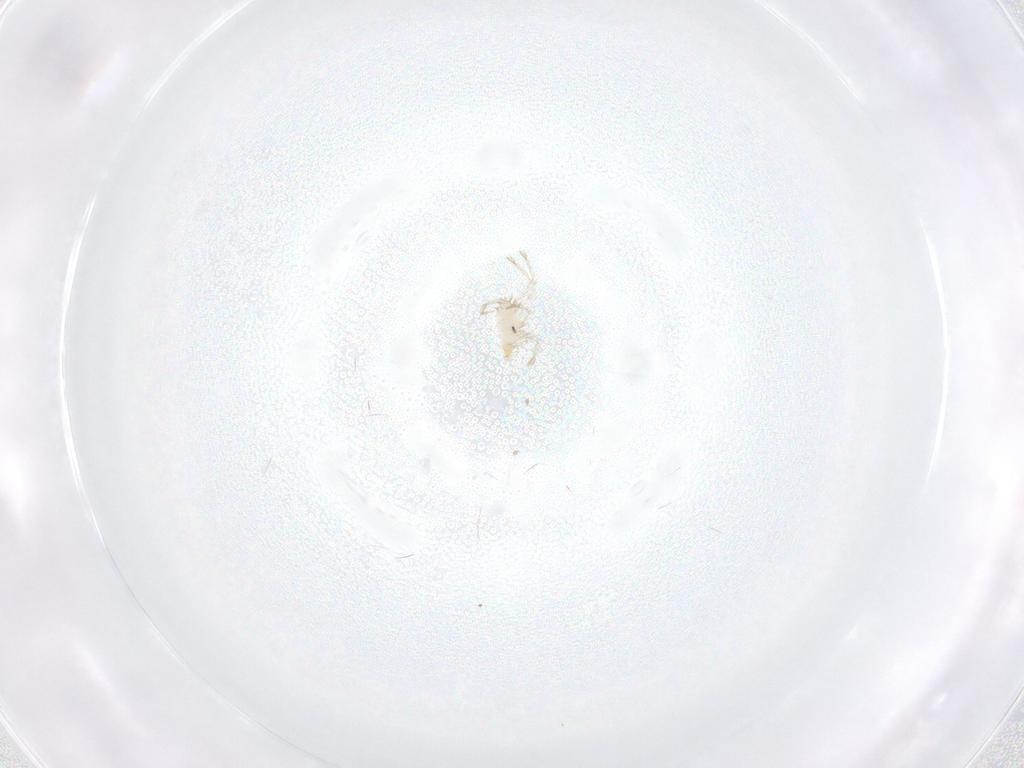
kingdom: Animalia
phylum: Arthropoda
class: Arachnida
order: Trombidiformes
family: Smarididae
